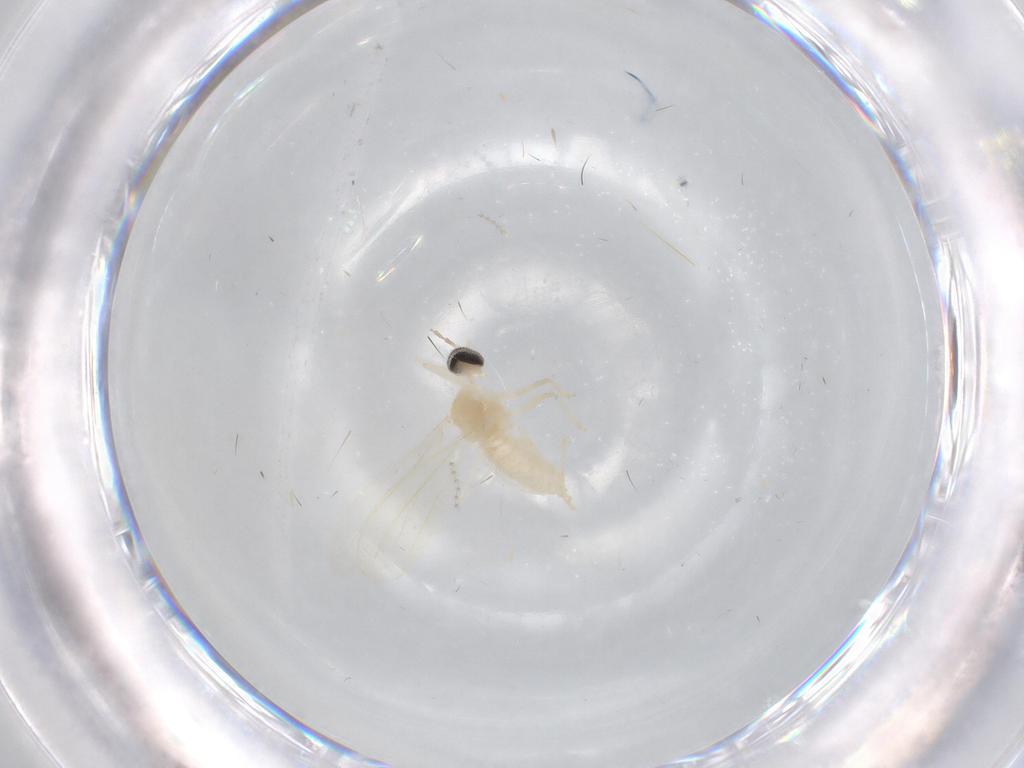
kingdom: Animalia
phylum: Arthropoda
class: Insecta
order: Diptera
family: Cecidomyiidae
